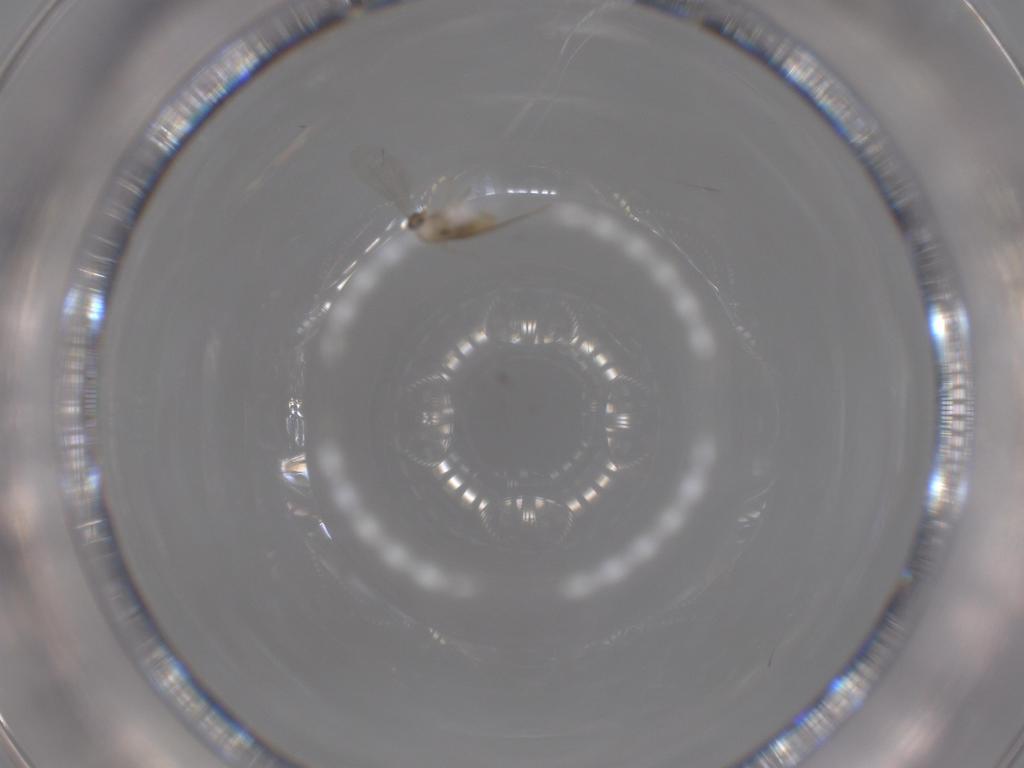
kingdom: Animalia
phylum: Arthropoda
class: Insecta
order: Diptera
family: Cecidomyiidae
